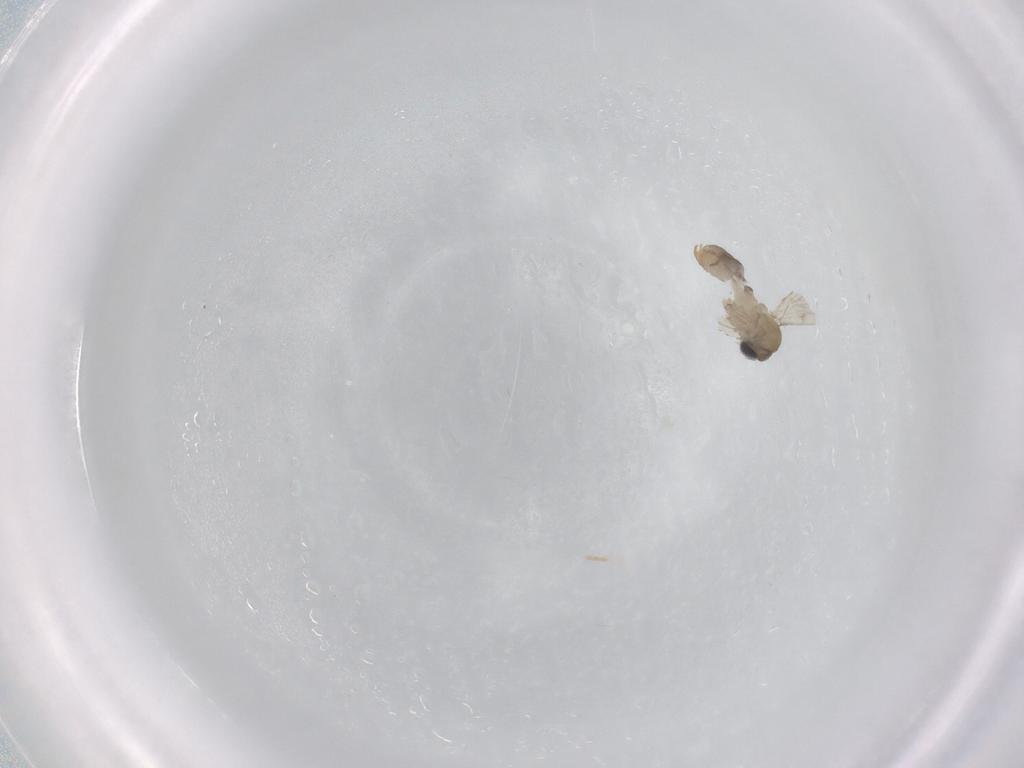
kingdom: Animalia
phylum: Arthropoda
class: Insecta
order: Diptera
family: Psychodidae
